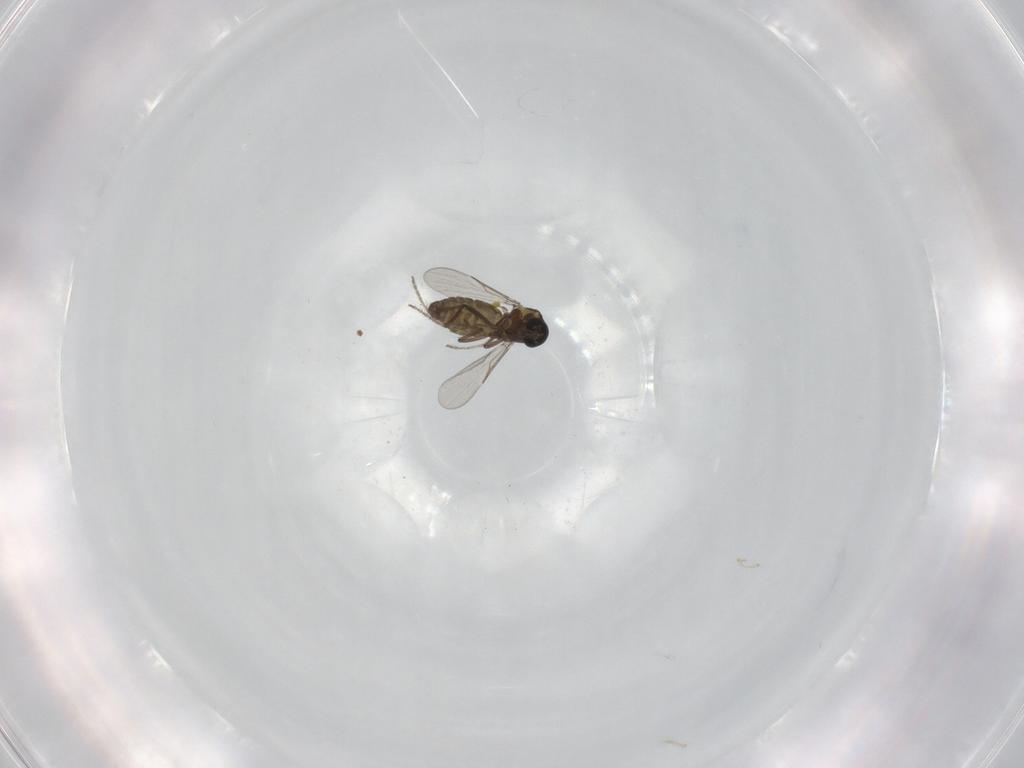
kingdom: Animalia
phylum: Arthropoda
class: Insecta
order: Diptera
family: Ceratopogonidae
